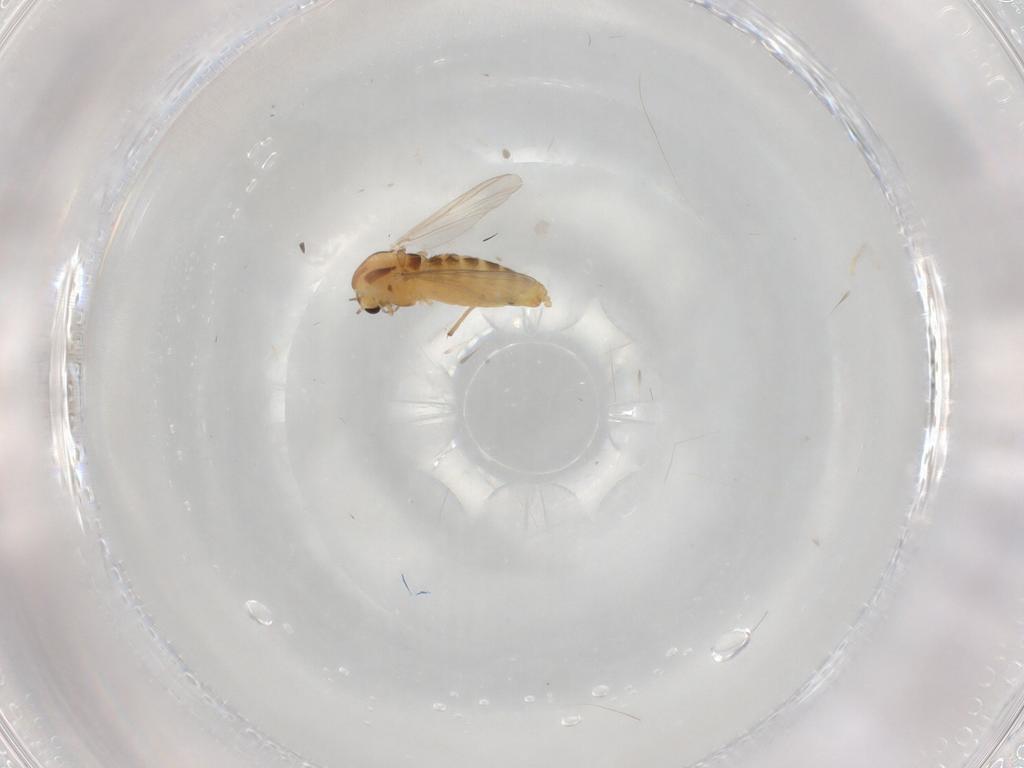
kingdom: Animalia
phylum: Arthropoda
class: Insecta
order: Diptera
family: Chironomidae
